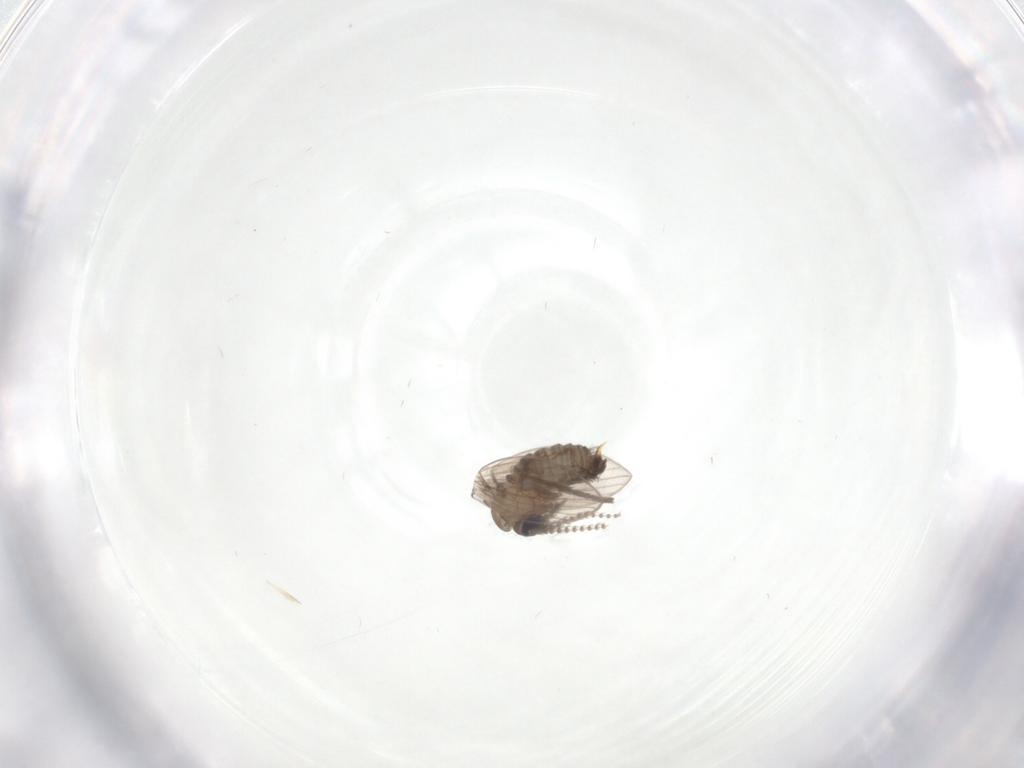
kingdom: Animalia
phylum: Arthropoda
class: Insecta
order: Diptera
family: Psychodidae
